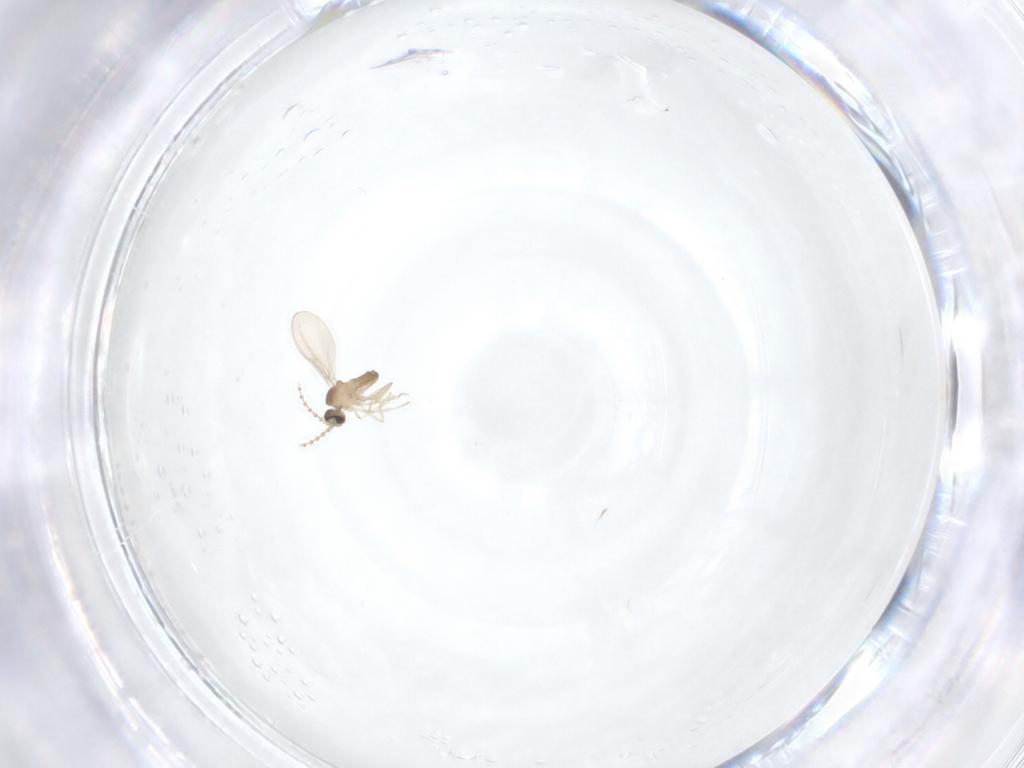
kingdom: Animalia
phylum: Arthropoda
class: Insecta
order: Diptera
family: Cecidomyiidae
